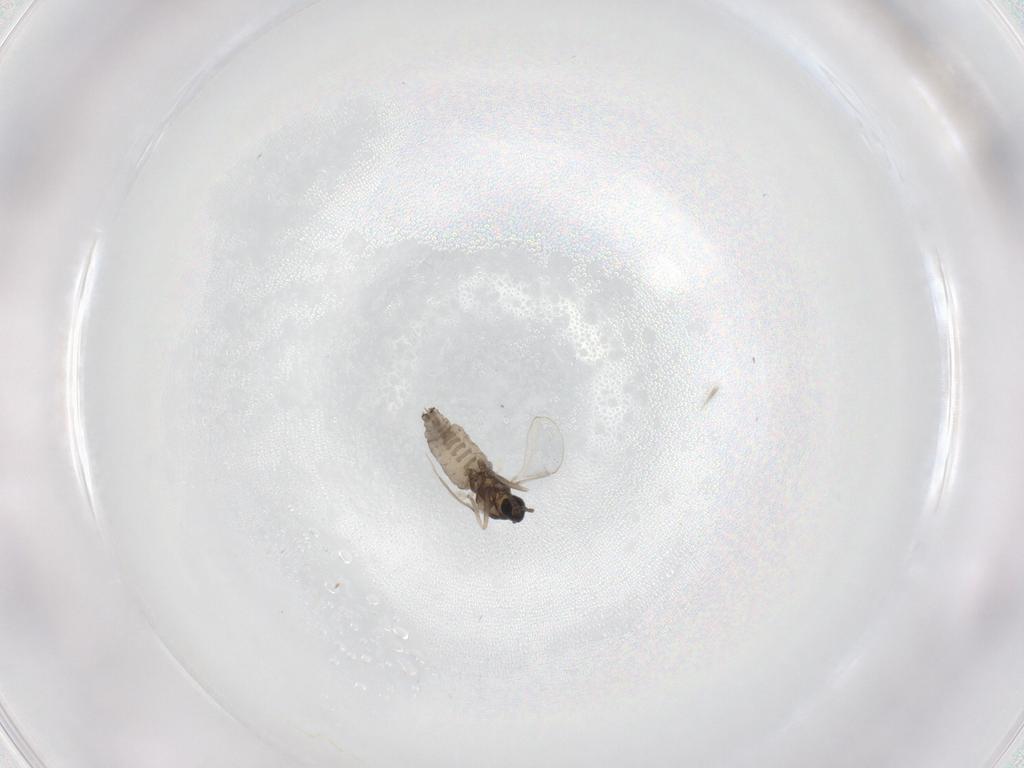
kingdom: Animalia
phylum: Arthropoda
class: Insecta
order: Diptera
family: Cecidomyiidae
